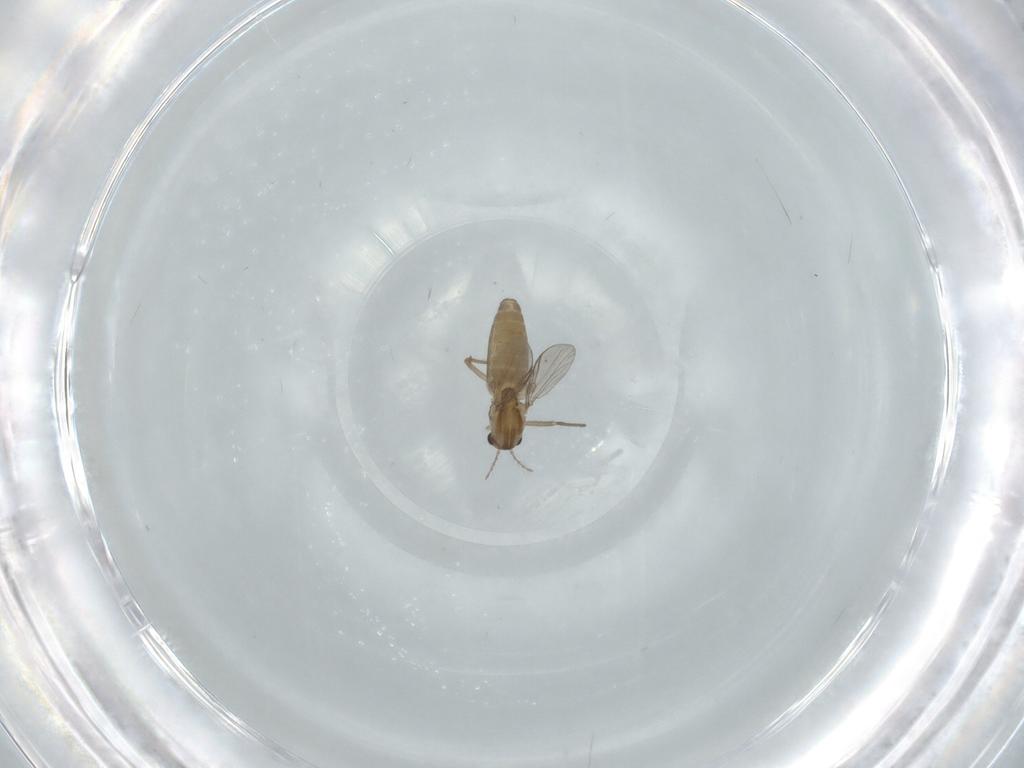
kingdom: Animalia
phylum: Arthropoda
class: Insecta
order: Diptera
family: Chironomidae
